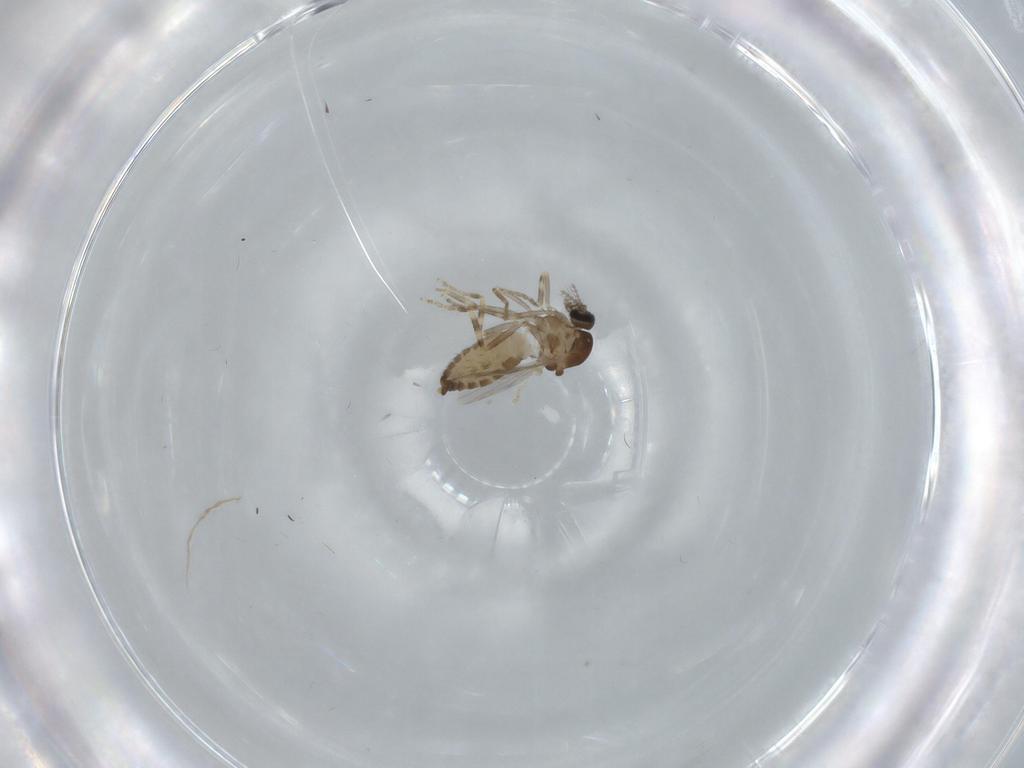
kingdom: Animalia
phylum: Arthropoda
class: Insecta
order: Diptera
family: Ceratopogonidae
